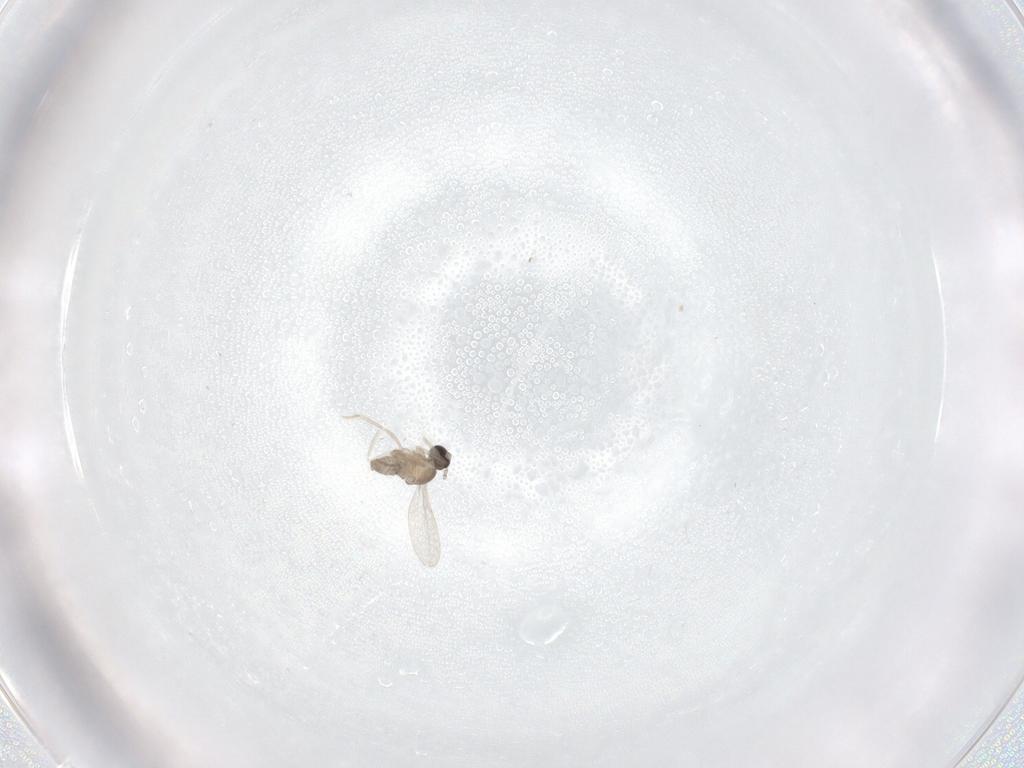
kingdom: Animalia
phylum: Arthropoda
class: Insecta
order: Diptera
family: Cecidomyiidae
